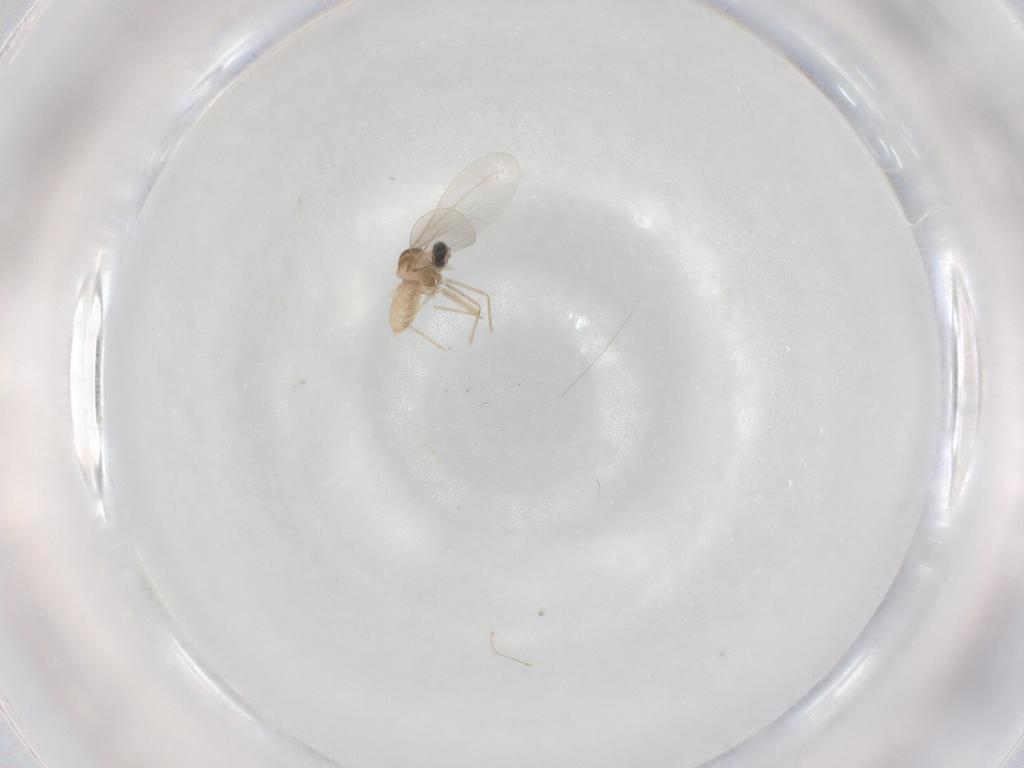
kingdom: Animalia
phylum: Arthropoda
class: Insecta
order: Diptera
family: Cecidomyiidae
